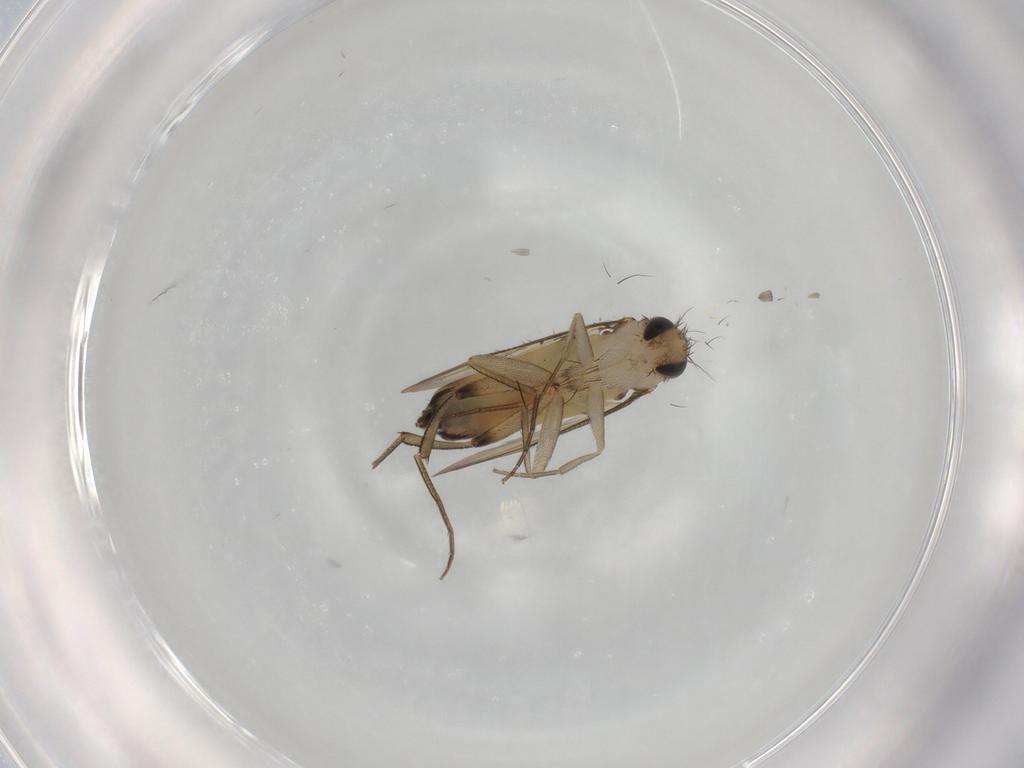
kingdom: Animalia
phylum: Arthropoda
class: Insecta
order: Diptera
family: Phoridae
